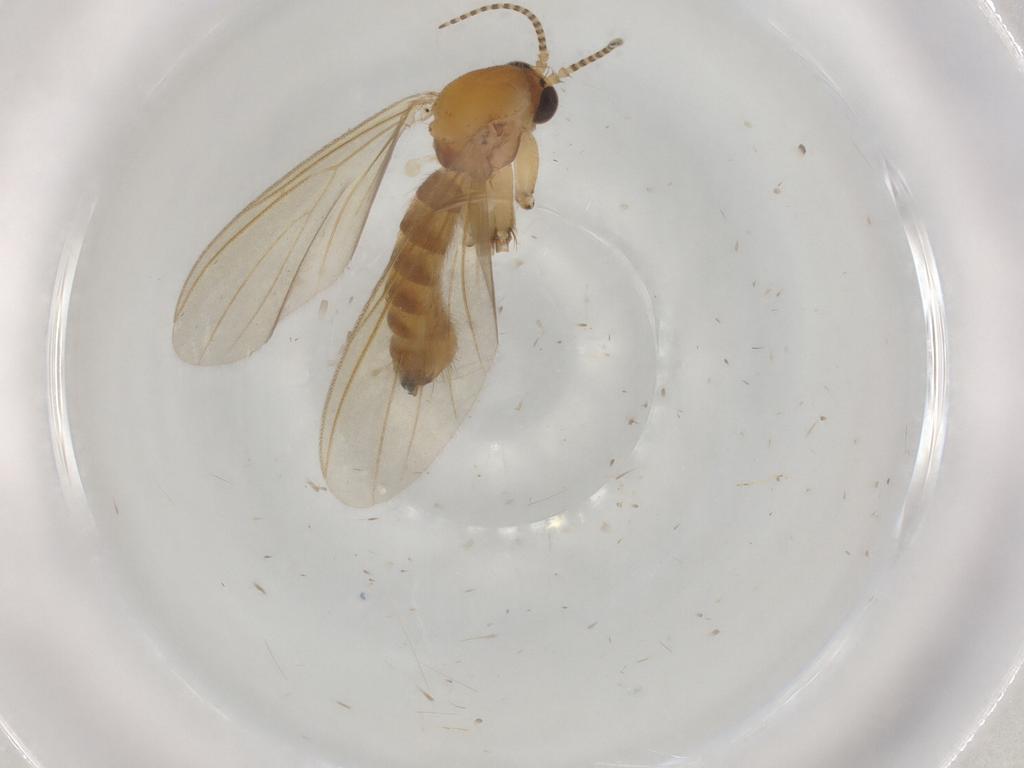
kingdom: Animalia
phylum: Arthropoda
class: Insecta
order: Diptera
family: Mycetophilidae
